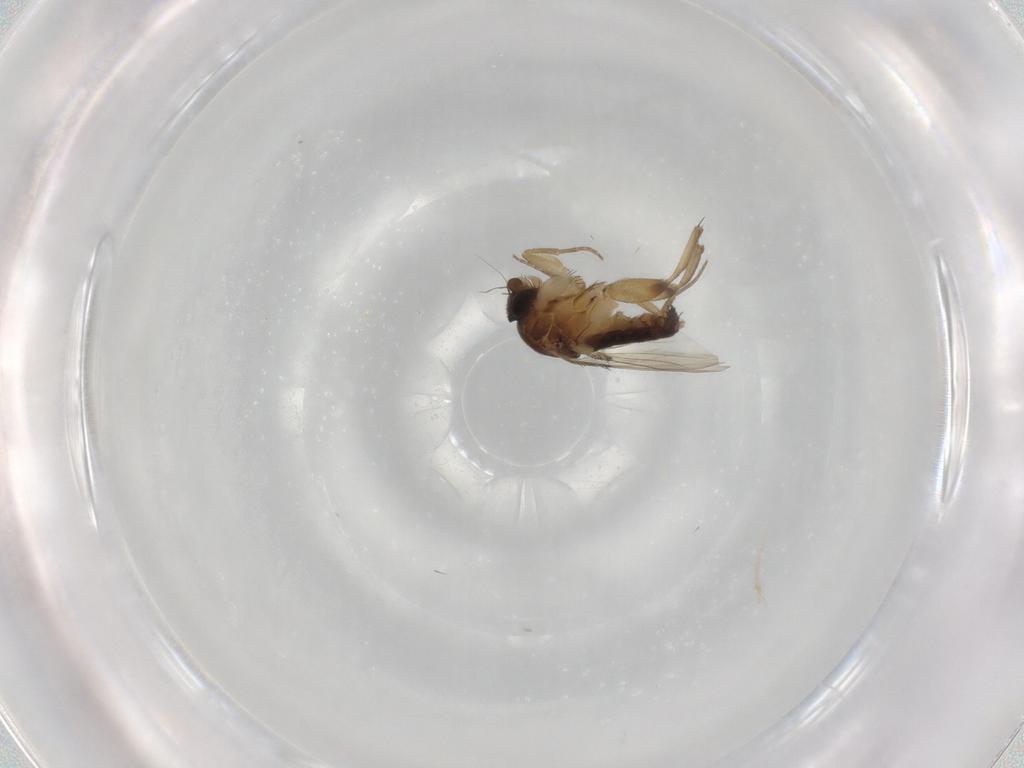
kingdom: Animalia
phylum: Arthropoda
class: Insecta
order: Diptera
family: Phoridae
